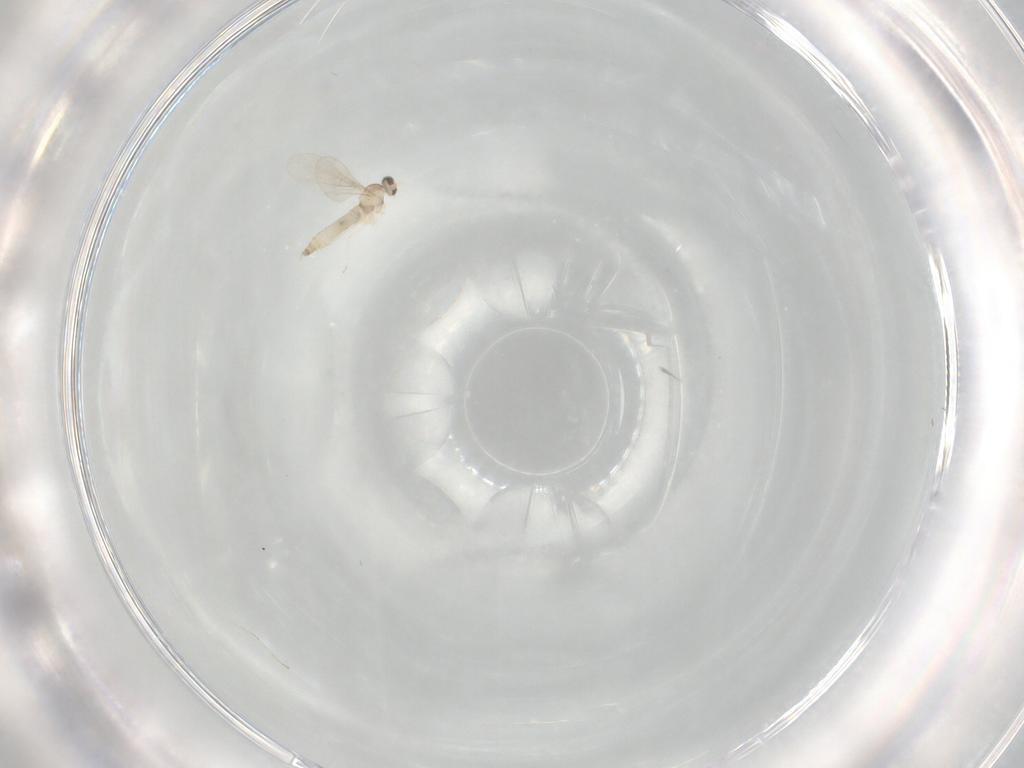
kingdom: Animalia
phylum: Arthropoda
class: Insecta
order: Diptera
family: Cecidomyiidae
